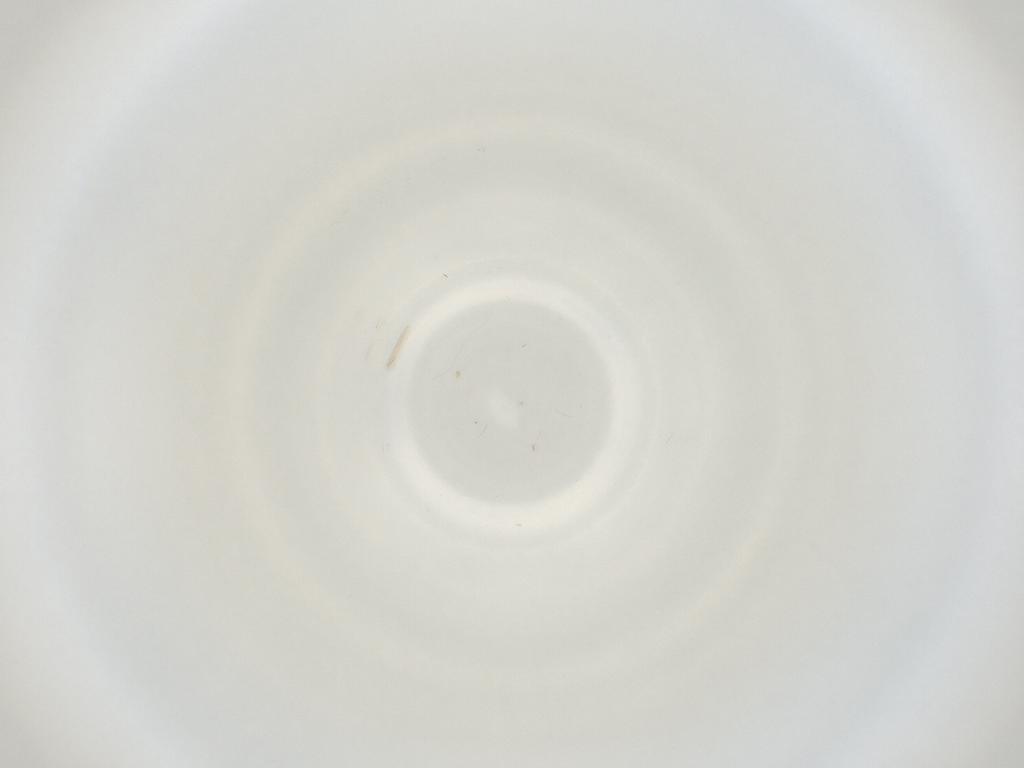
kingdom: Animalia
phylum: Arthropoda
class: Insecta
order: Diptera
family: Cecidomyiidae
